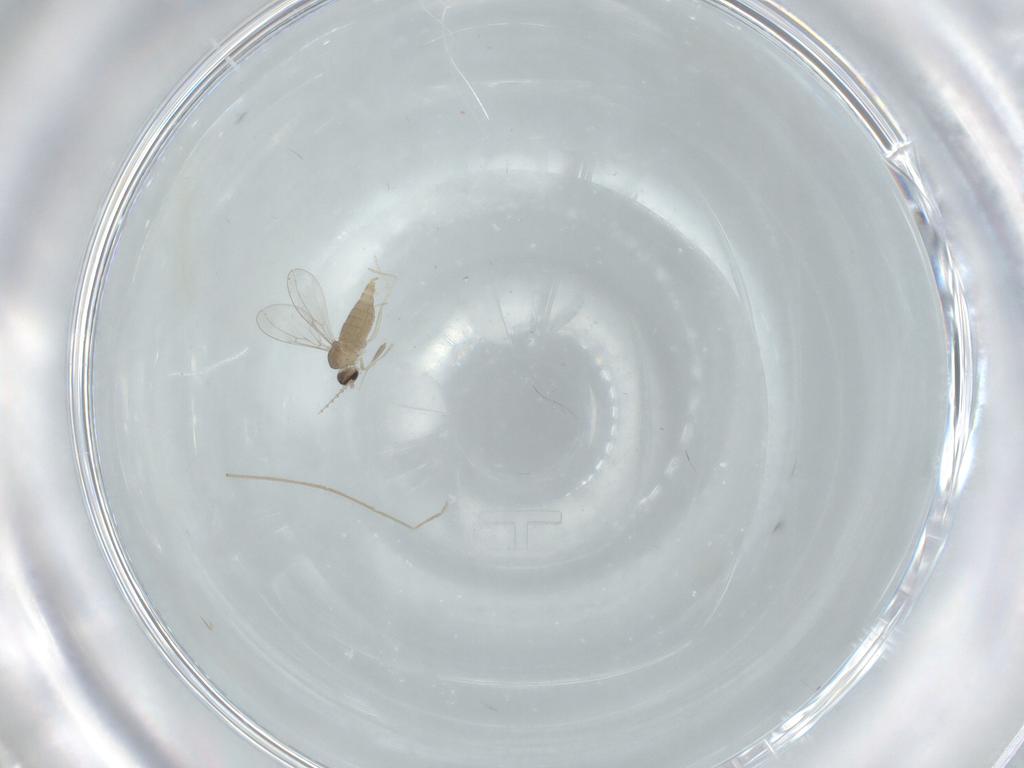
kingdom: Animalia
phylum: Arthropoda
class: Insecta
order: Diptera
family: Cecidomyiidae
